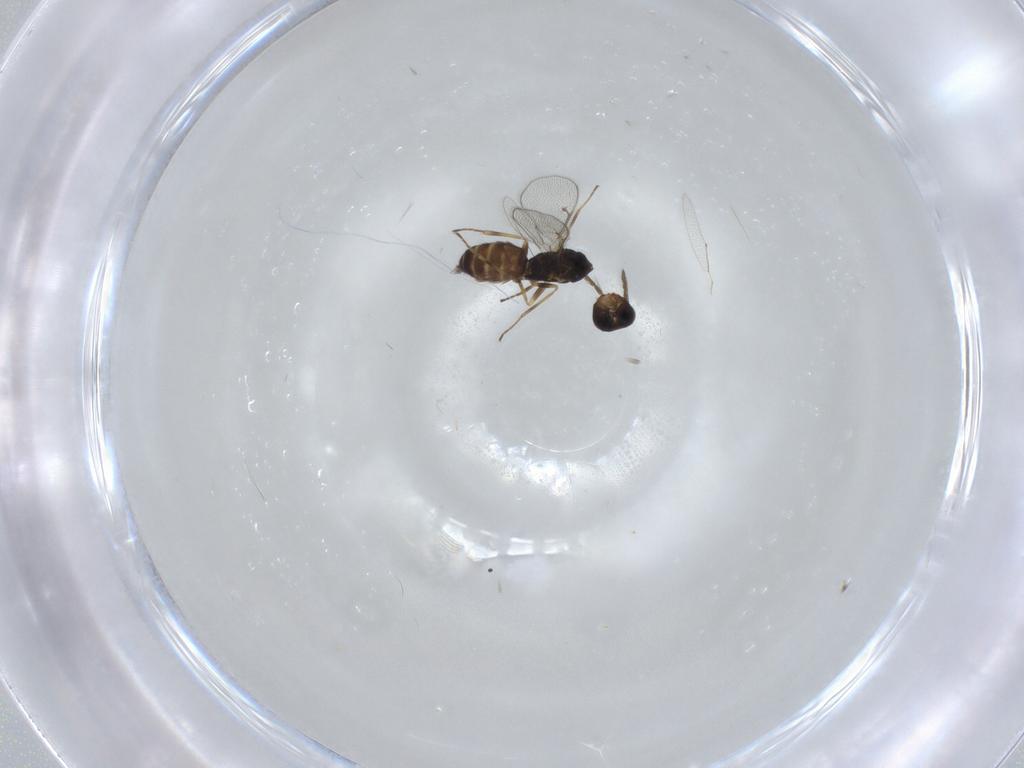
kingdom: Animalia
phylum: Arthropoda
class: Insecta
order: Hymenoptera
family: Eulophidae
